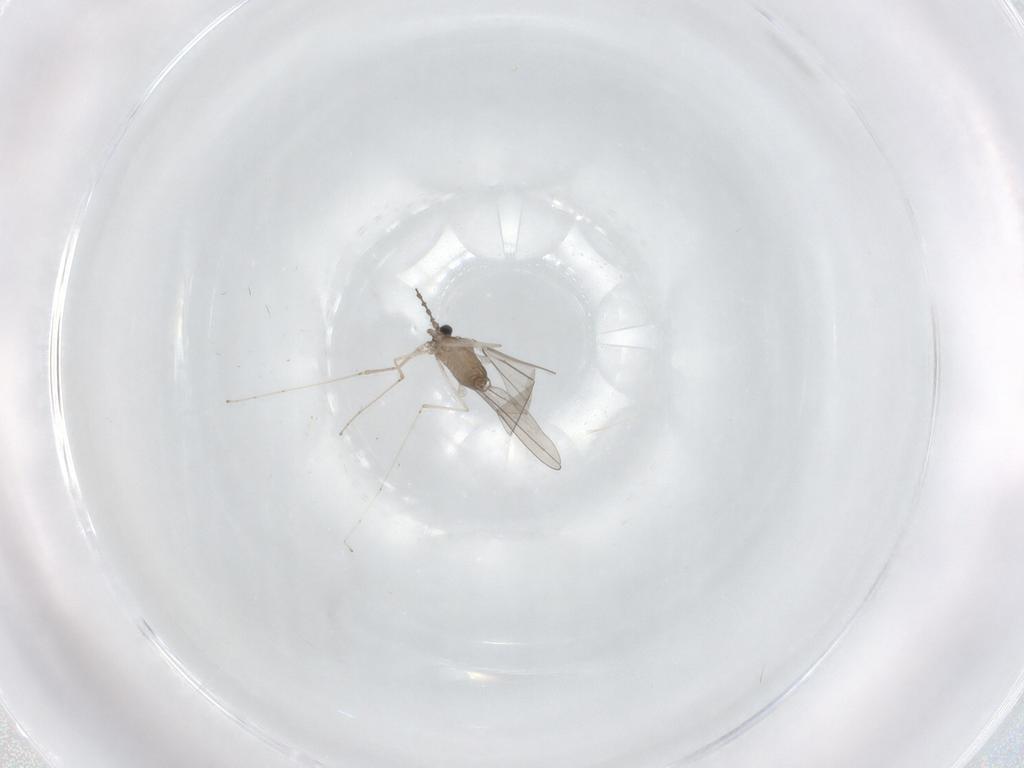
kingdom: Animalia
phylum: Arthropoda
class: Insecta
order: Diptera
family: Cecidomyiidae
